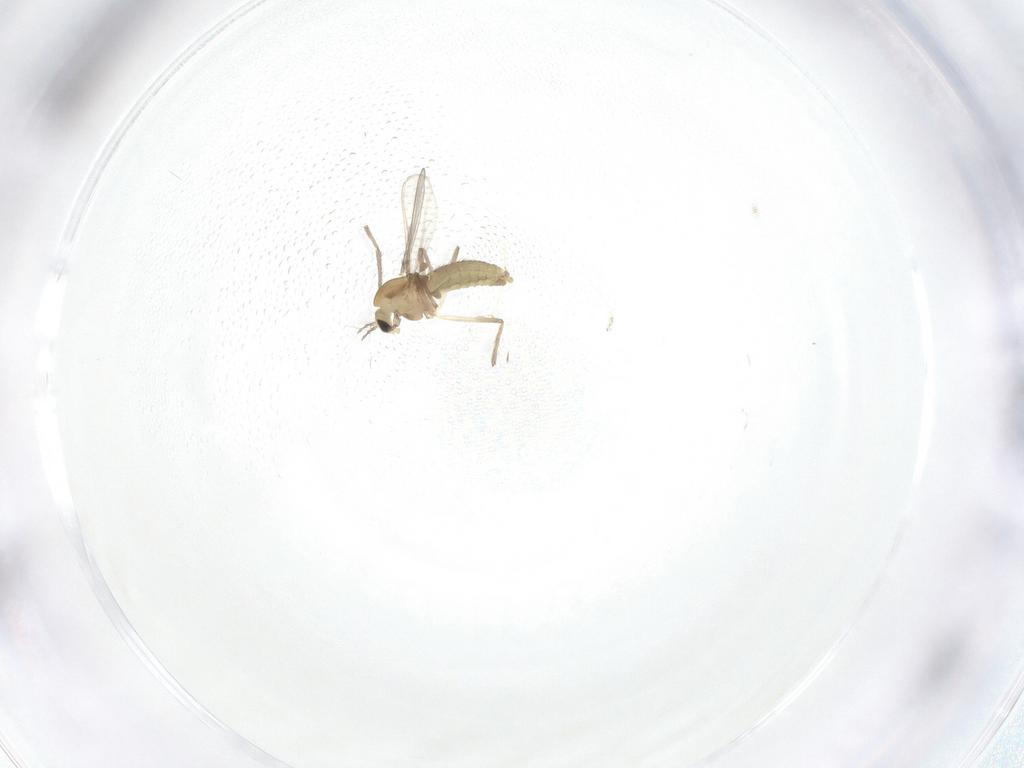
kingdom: Animalia
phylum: Arthropoda
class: Insecta
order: Diptera
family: Chironomidae
